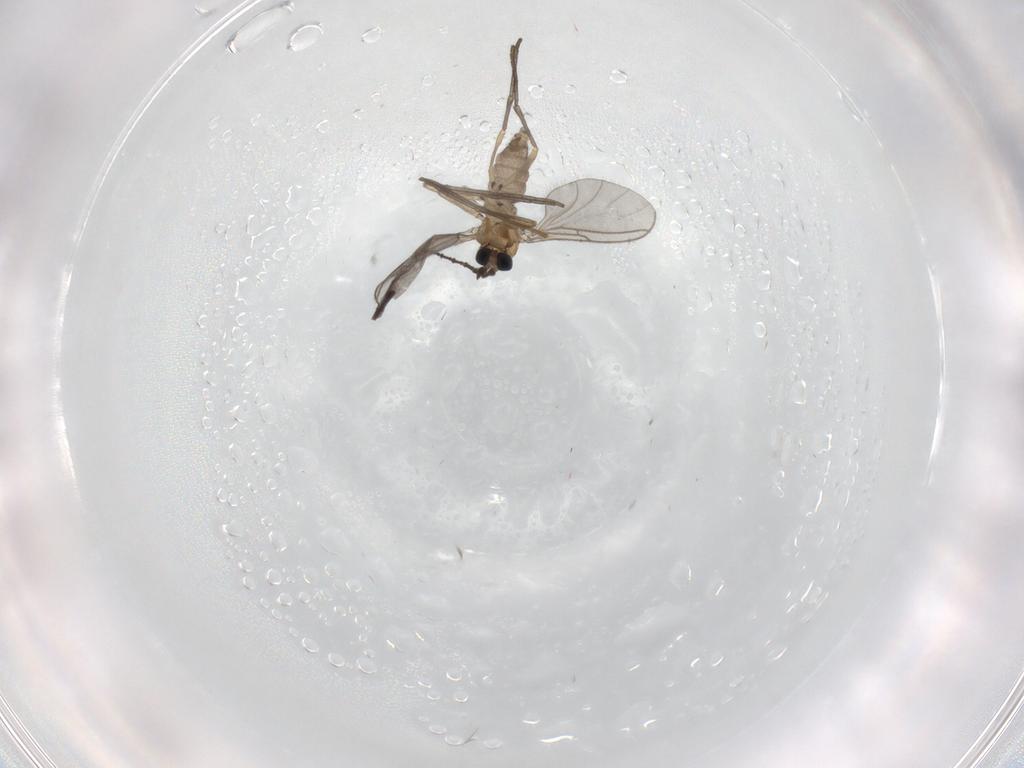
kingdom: Animalia
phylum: Arthropoda
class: Insecta
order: Diptera
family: Sciaridae
